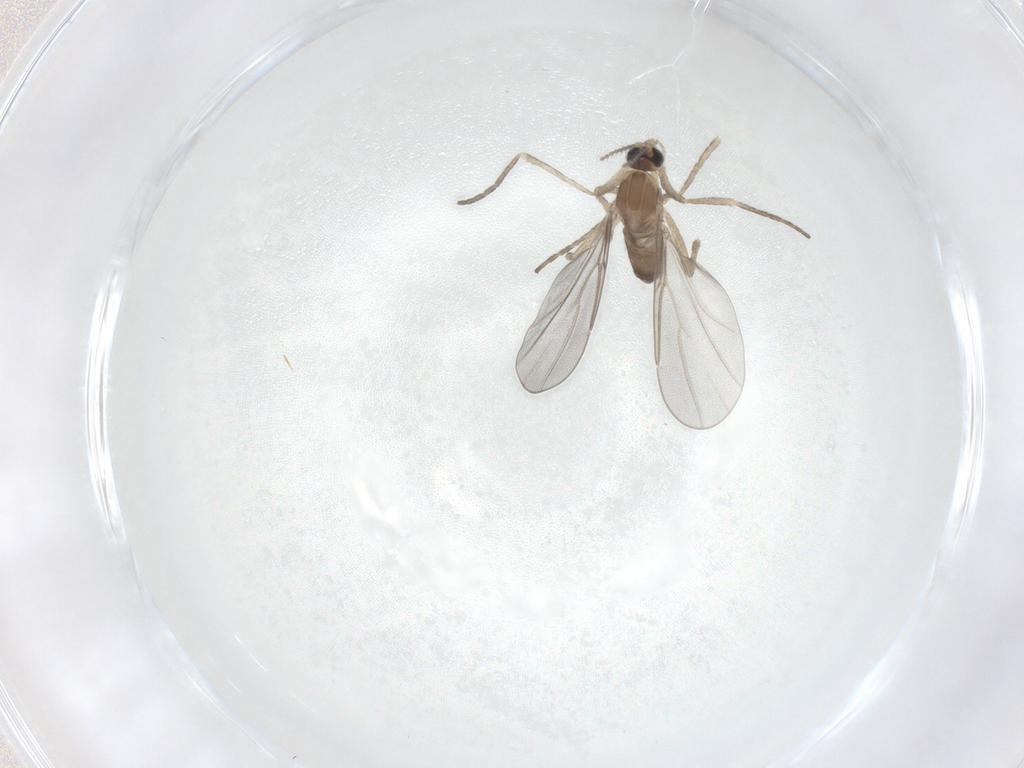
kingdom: Animalia
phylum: Arthropoda
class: Insecta
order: Diptera
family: Cecidomyiidae
